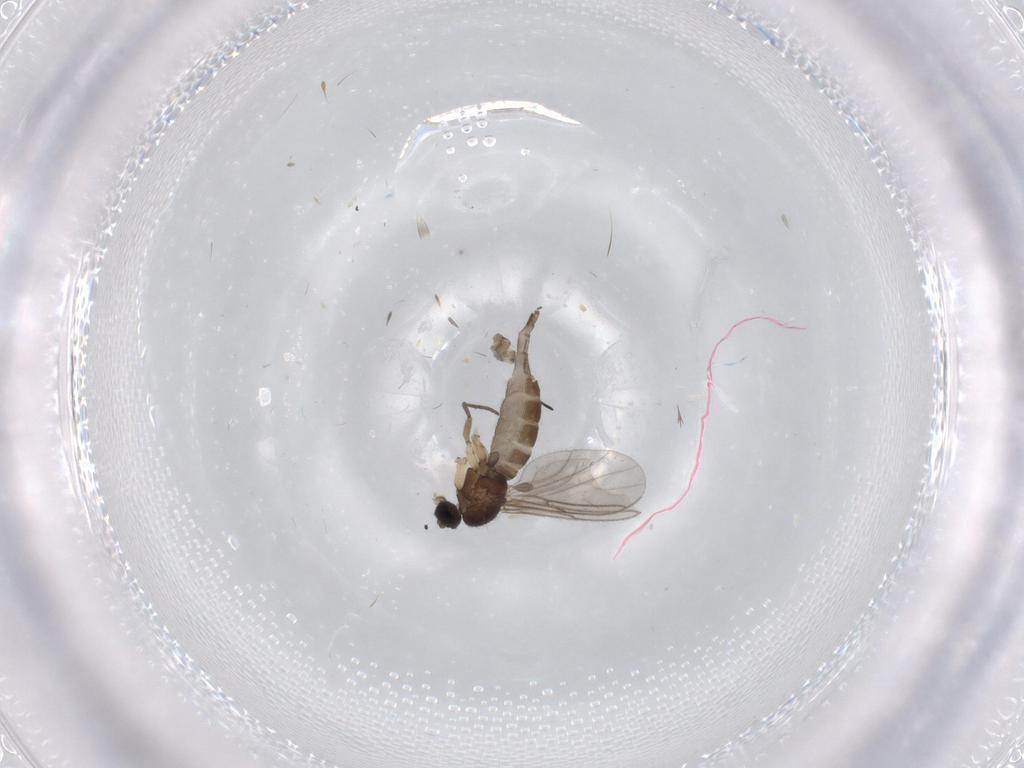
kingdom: Animalia
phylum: Arthropoda
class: Insecta
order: Diptera
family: Sciaridae
